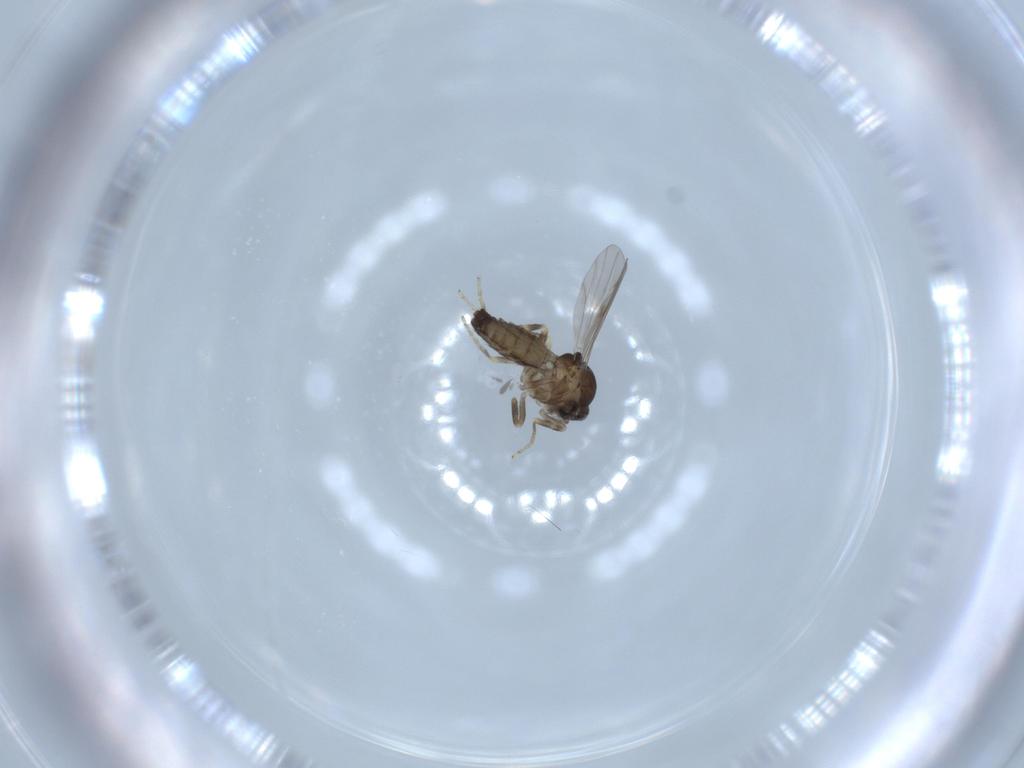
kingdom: Animalia
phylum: Arthropoda
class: Insecta
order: Diptera
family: Ceratopogonidae
